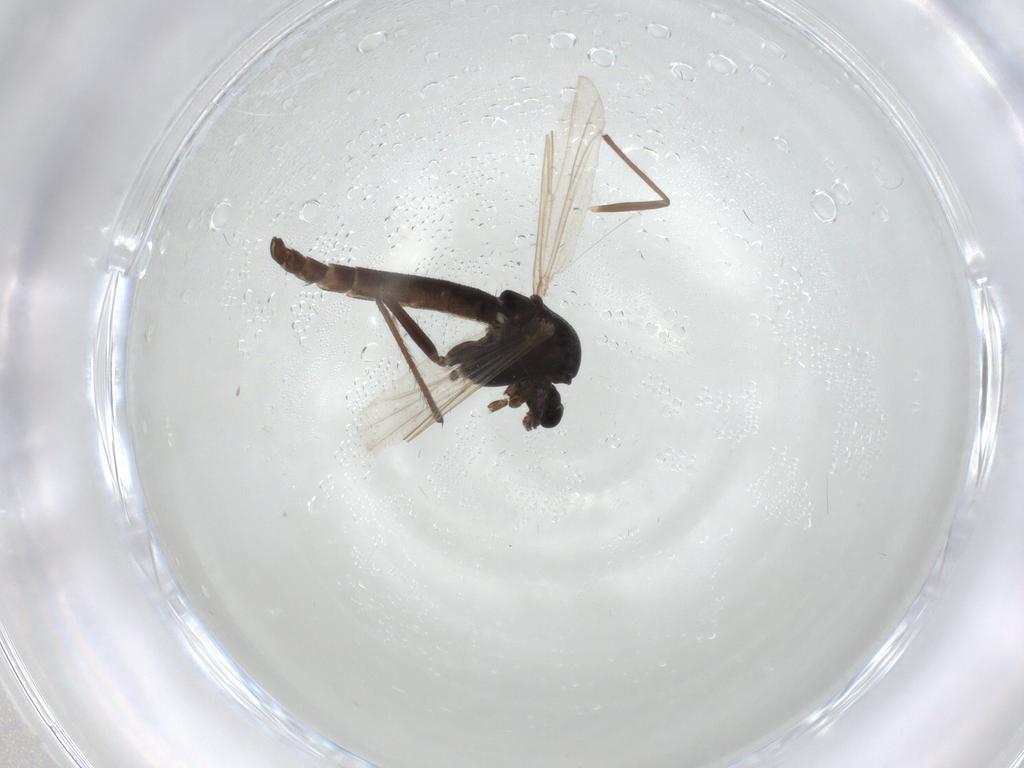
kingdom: Animalia
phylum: Arthropoda
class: Insecta
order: Diptera
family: Chironomidae
